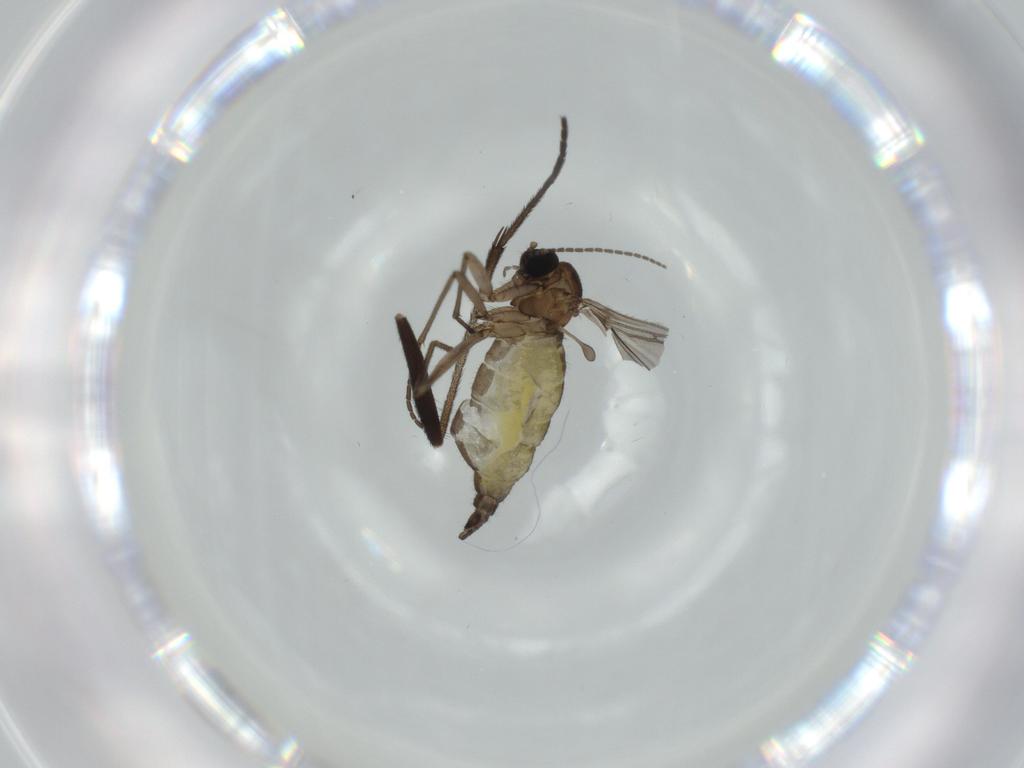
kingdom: Animalia
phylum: Arthropoda
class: Insecta
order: Diptera
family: Sciaridae
